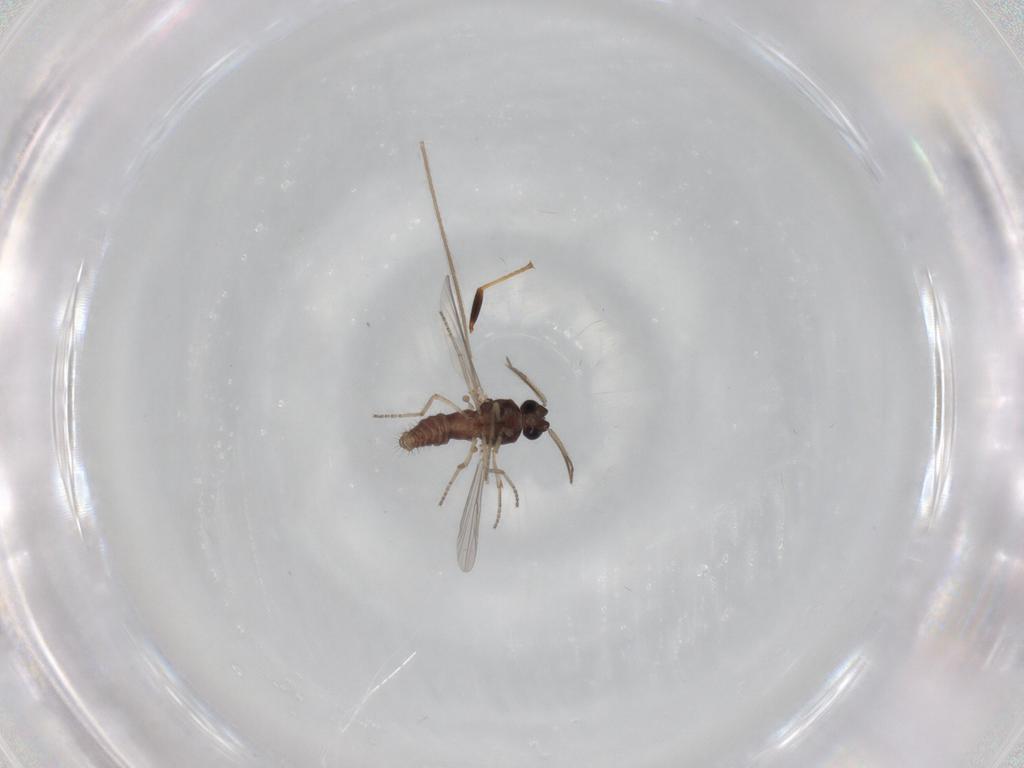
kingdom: Animalia
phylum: Arthropoda
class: Insecta
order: Diptera
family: Ceratopogonidae
